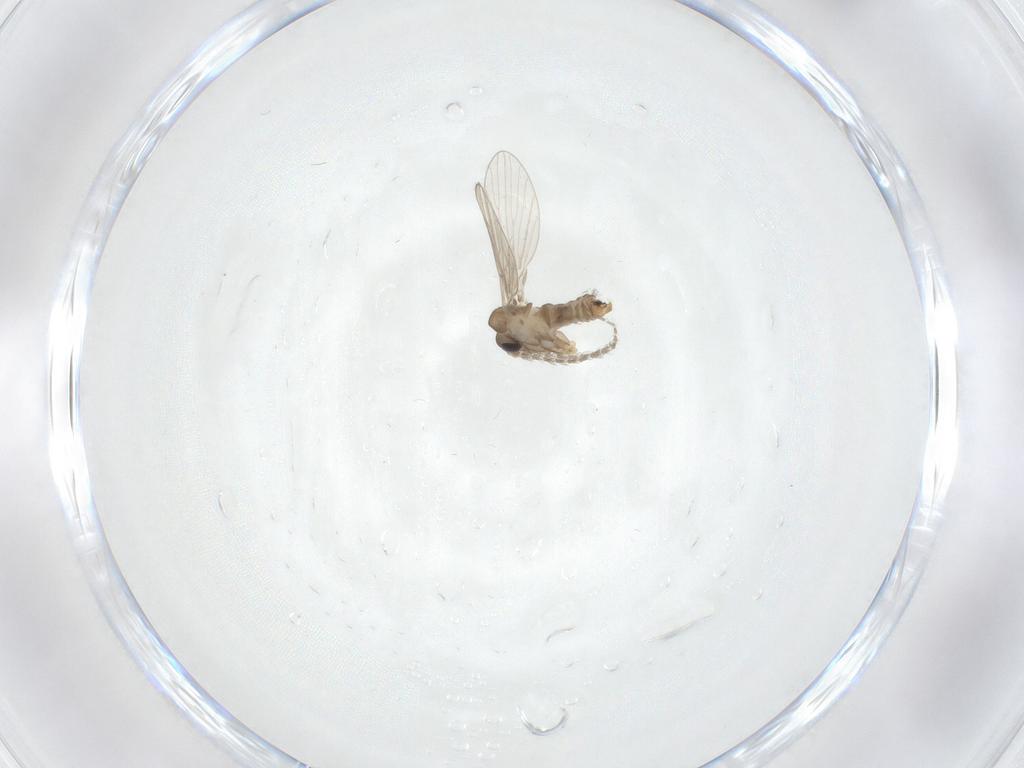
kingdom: Animalia
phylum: Arthropoda
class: Insecta
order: Diptera
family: Psychodidae
